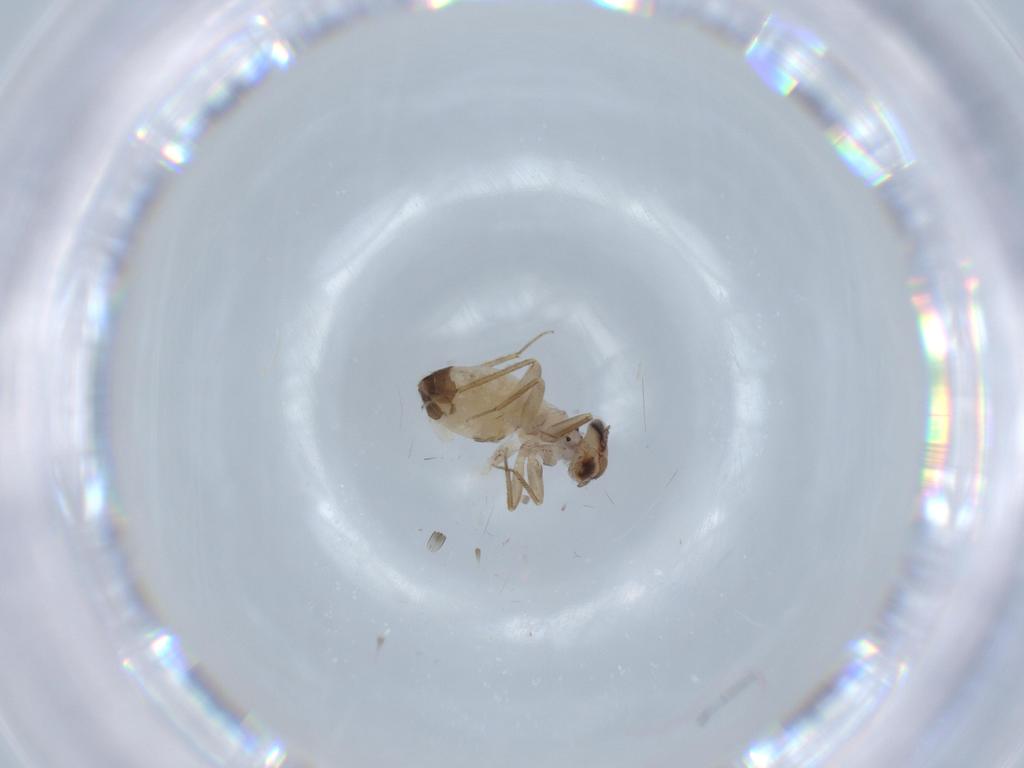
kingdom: Animalia
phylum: Arthropoda
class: Insecta
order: Psocodea
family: Lepidopsocidae
